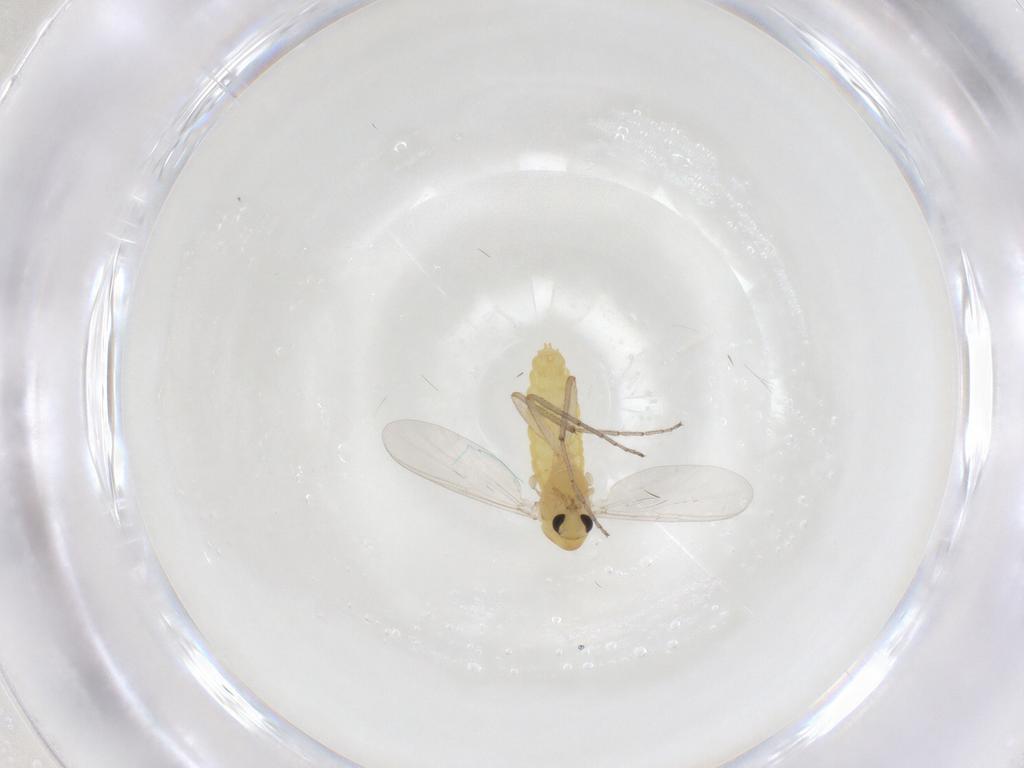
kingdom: Animalia
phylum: Arthropoda
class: Insecta
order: Diptera
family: Chironomidae
